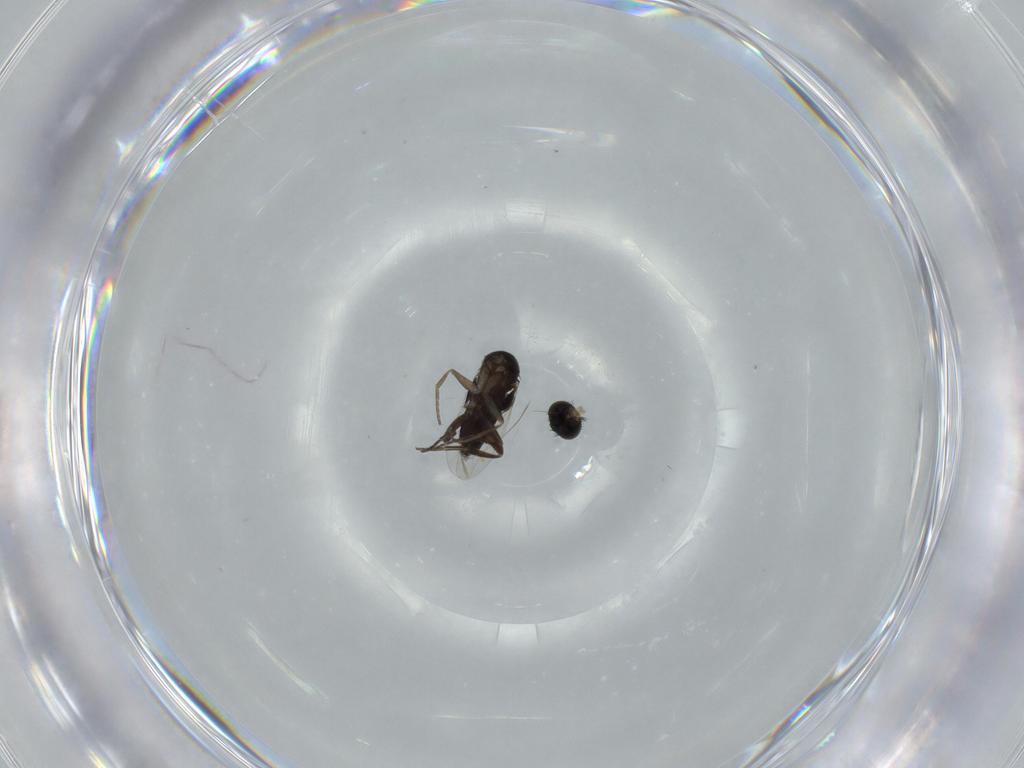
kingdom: Animalia
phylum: Arthropoda
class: Insecta
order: Diptera
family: Phoridae
